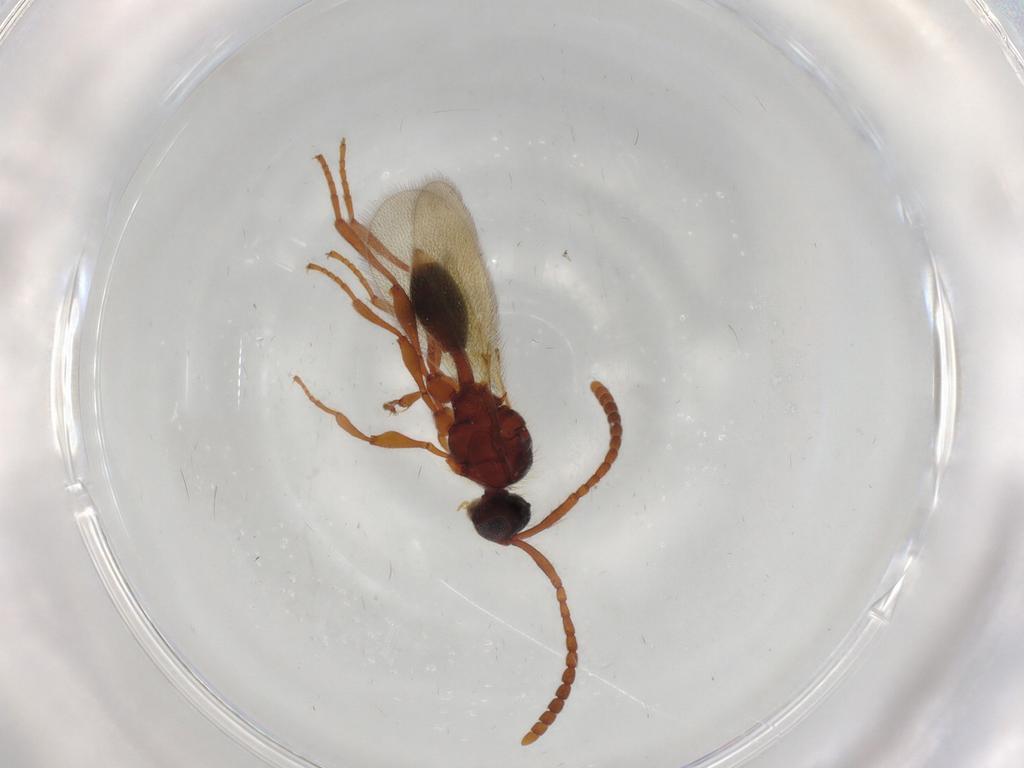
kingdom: Animalia
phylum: Arthropoda
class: Insecta
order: Hymenoptera
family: Diapriidae
